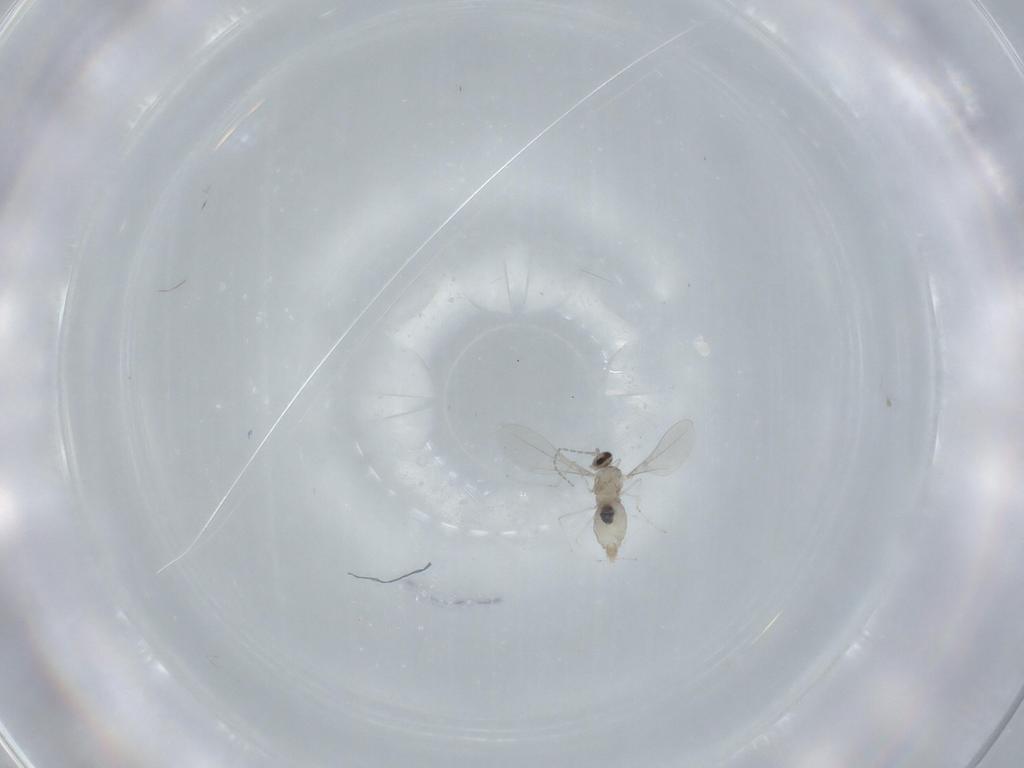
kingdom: Animalia
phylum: Arthropoda
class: Insecta
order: Diptera
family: Cecidomyiidae
